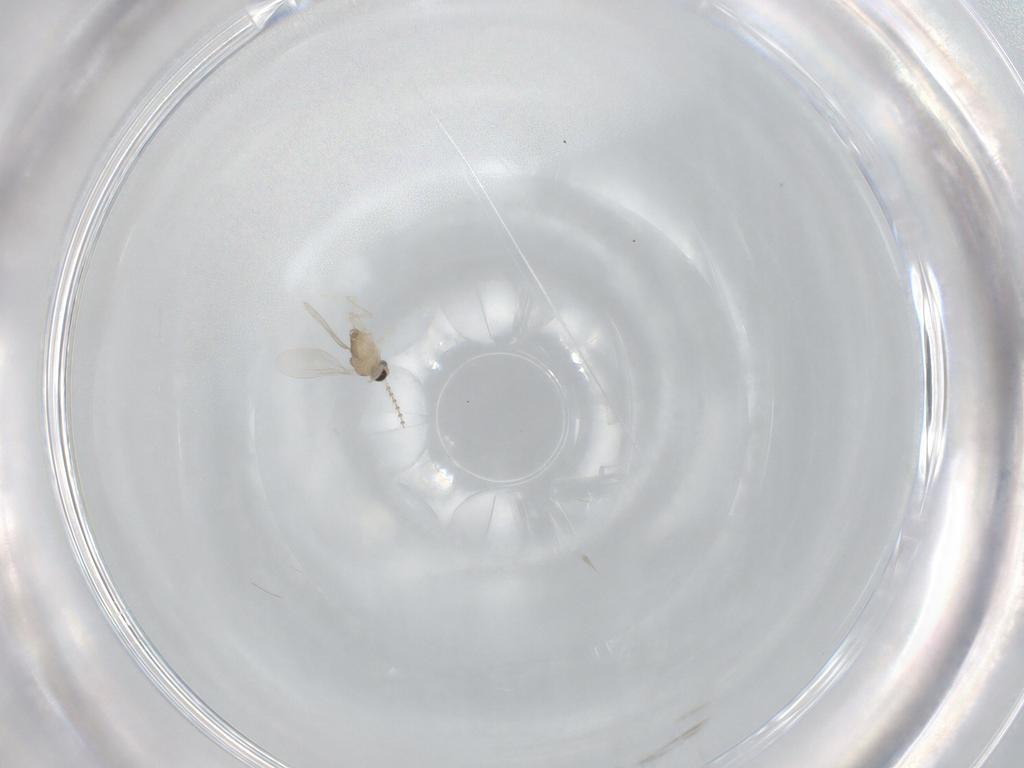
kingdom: Animalia
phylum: Arthropoda
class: Insecta
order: Diptera
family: Cecidomyiidae
